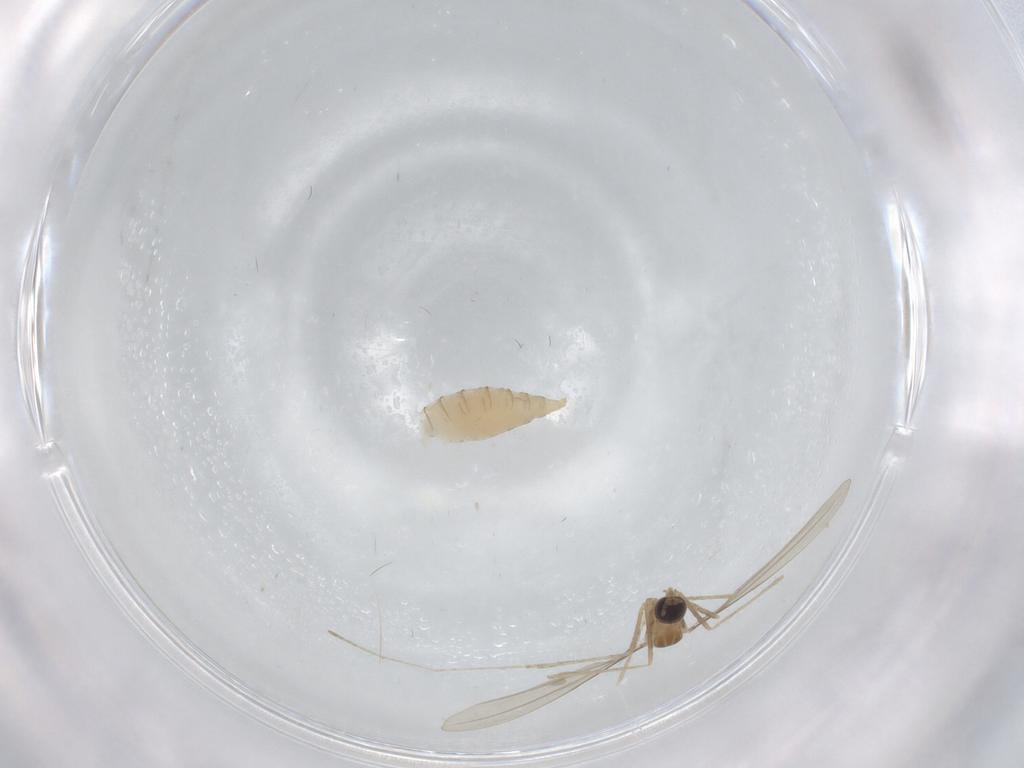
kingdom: Animalia
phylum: Arthropoda
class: Insecta
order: Diptera
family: Cecidomyiidae
